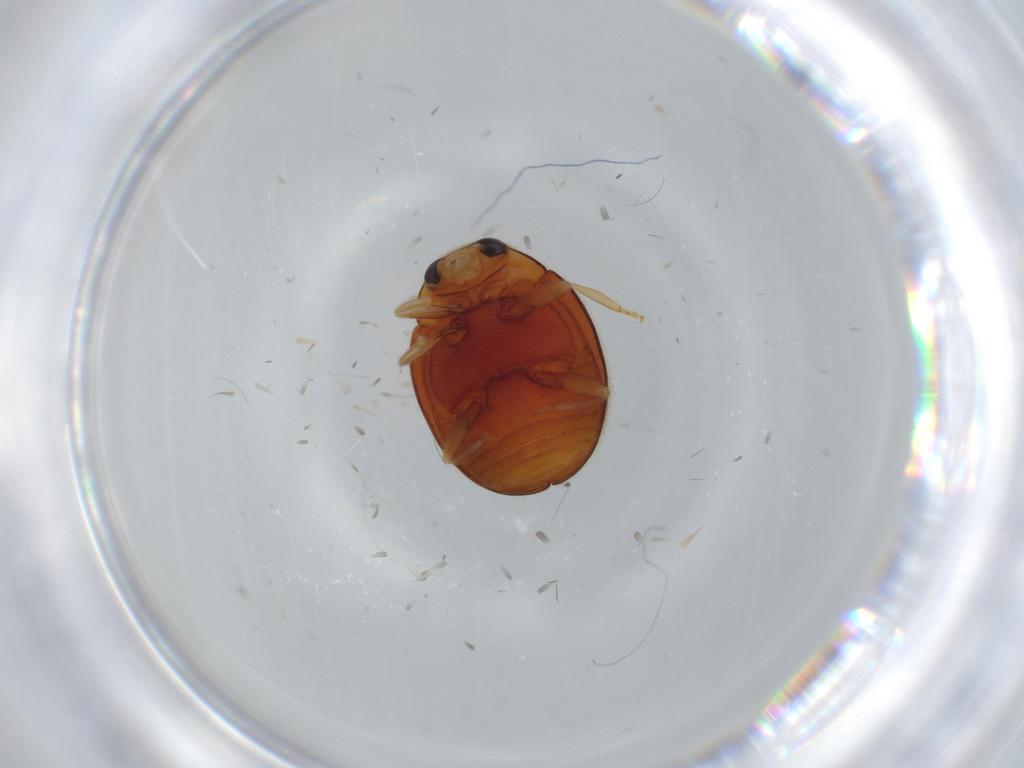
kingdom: Animalia
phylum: Arthropoda
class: Insecta
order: Coleoptera
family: Coccinellidae
